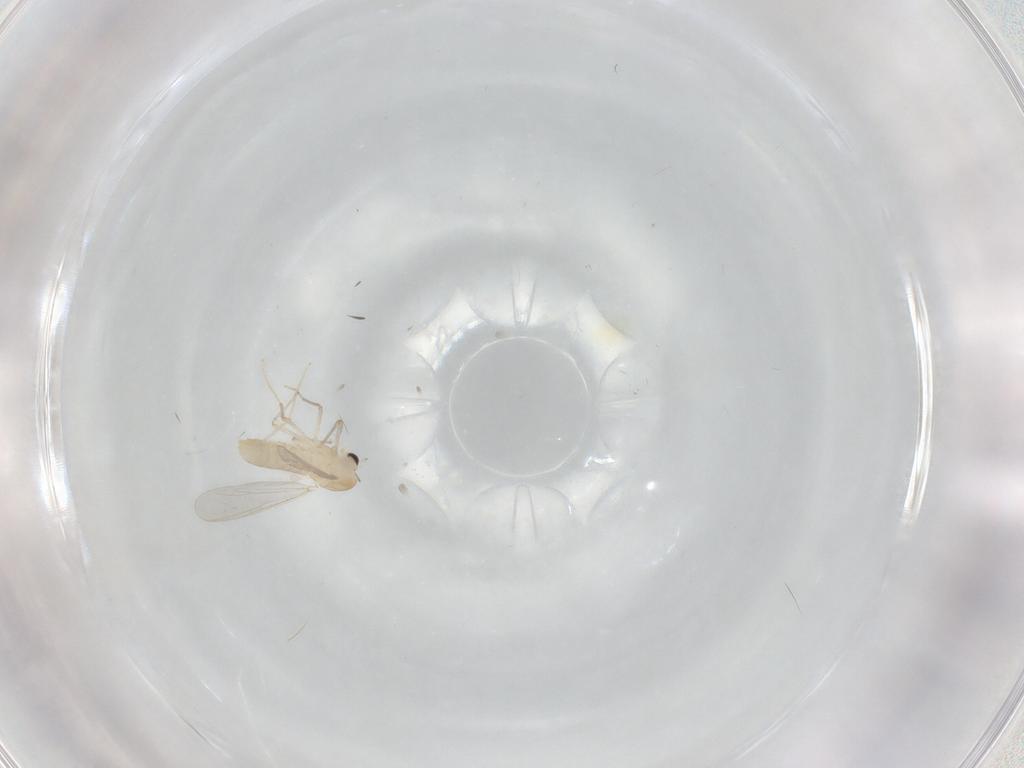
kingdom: Animalia
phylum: Arthropoda
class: Insecta
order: Diptera
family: Chironomidae
